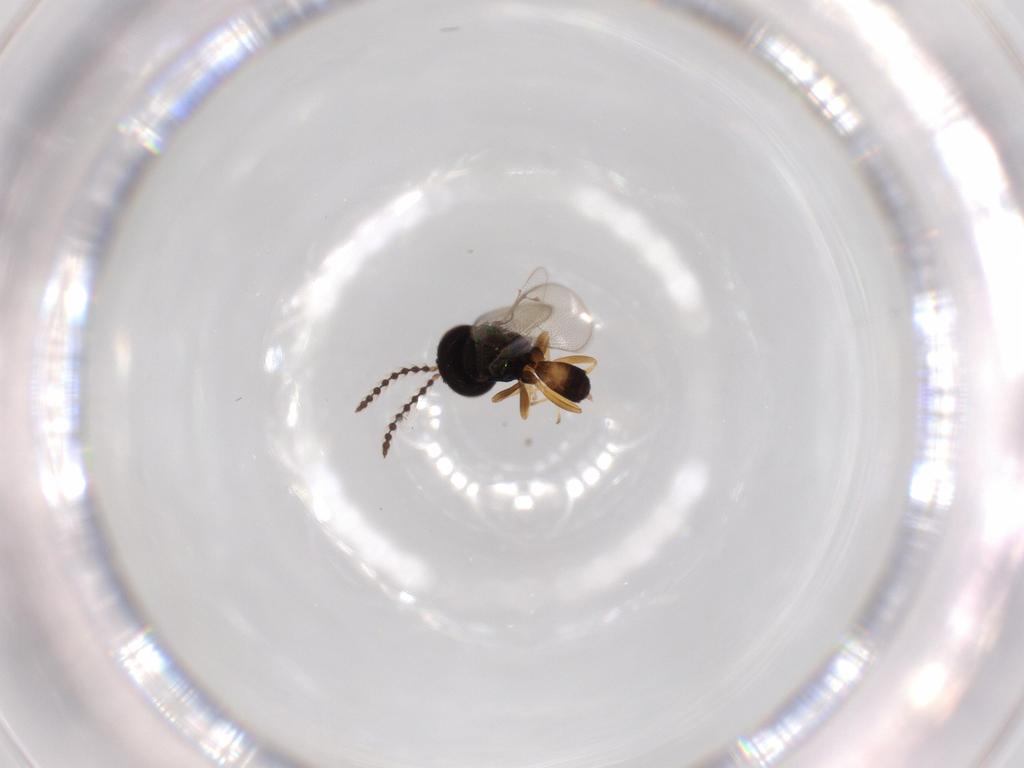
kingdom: Animalia
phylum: Arthropoda
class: Insecta
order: Hymenoptera
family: Pteromalidae
